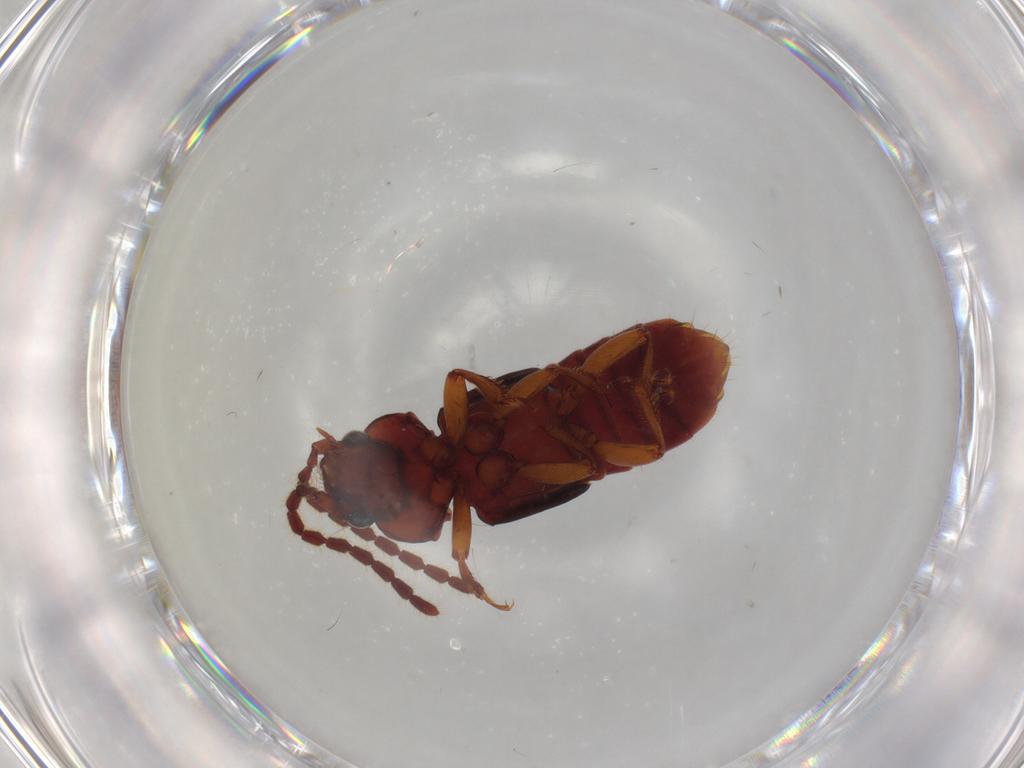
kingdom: Animalia
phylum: Arthropoda
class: Insecta
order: Coleoptera
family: Staphylinidae
